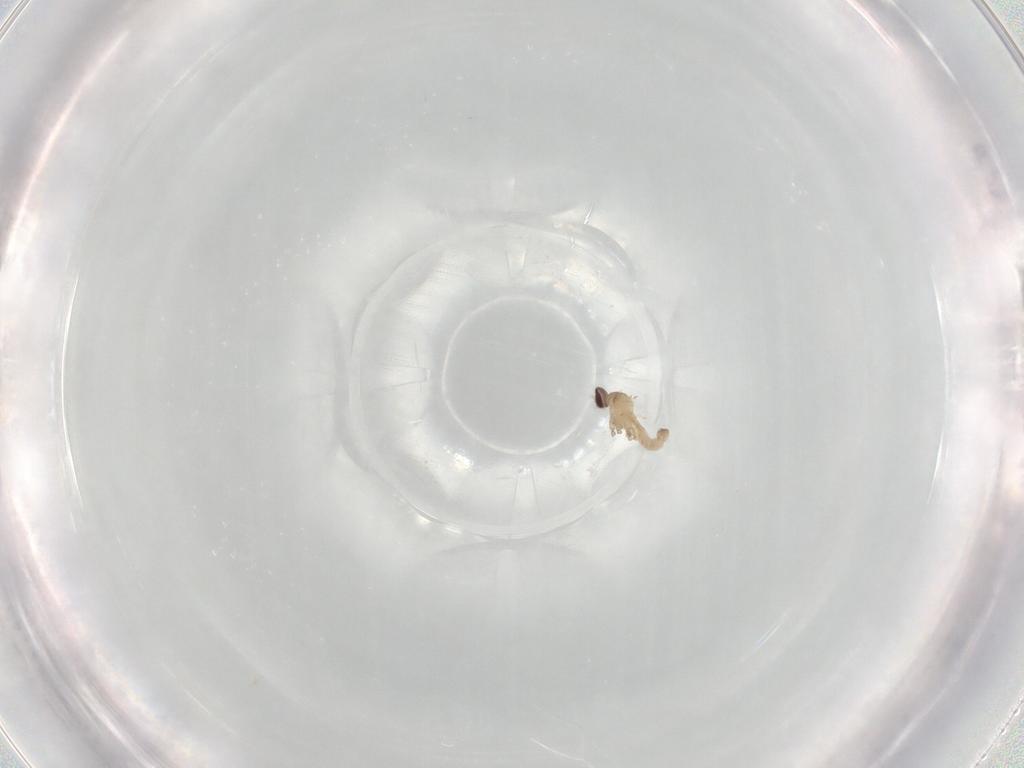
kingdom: Animalia
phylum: Arthropoda
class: Insecta
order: Diptera
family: Cecidomyiidae
